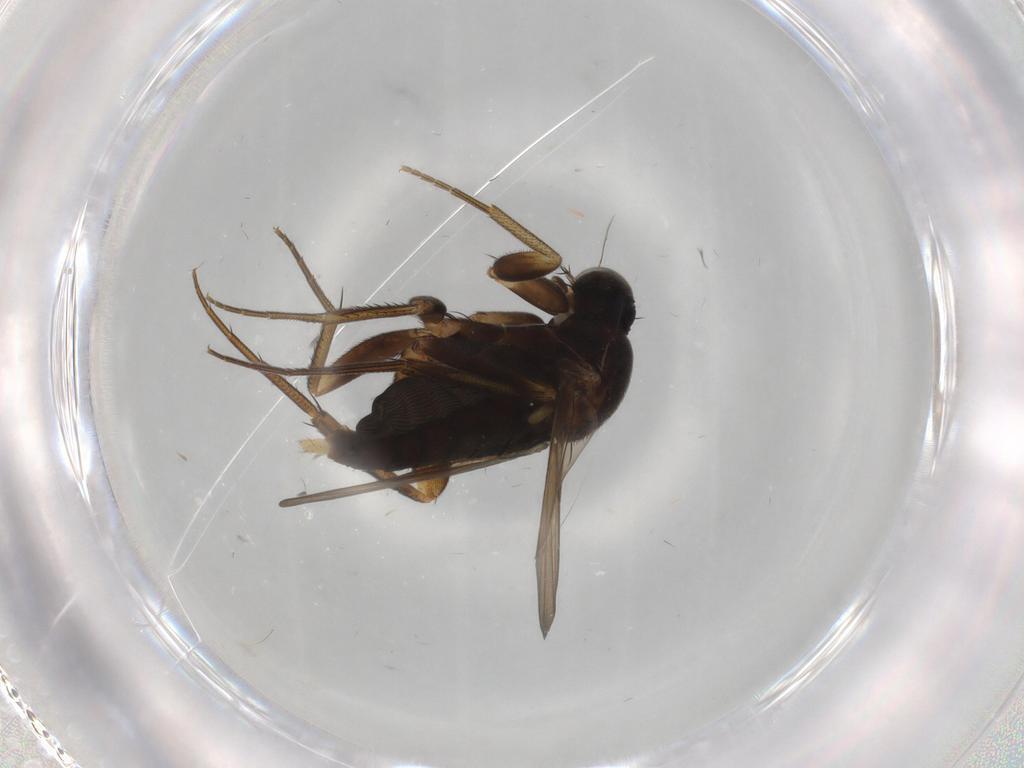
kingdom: Animalia
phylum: Arthropoda
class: Insecta
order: Diptera
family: Phoridae
